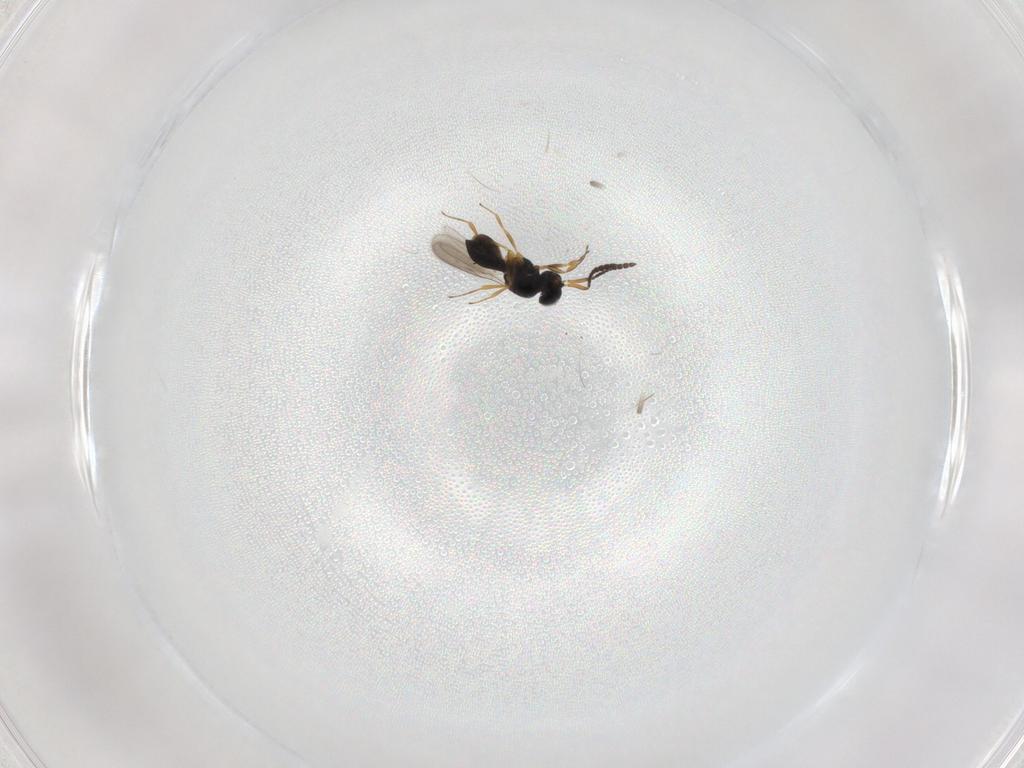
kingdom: Animalia
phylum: Arthropoda
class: Insecta
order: Hymenoptera
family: Scelionidae
